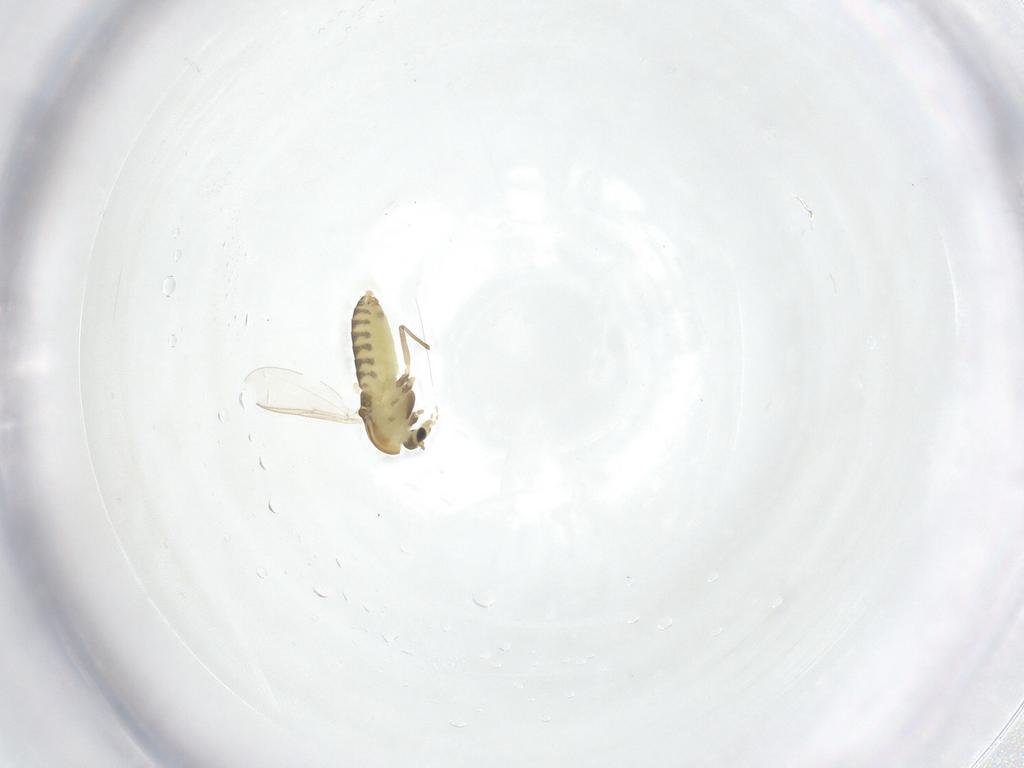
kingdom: Animalia
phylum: Arthropoda
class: Insecta
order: Diptera
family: Chironomidae
